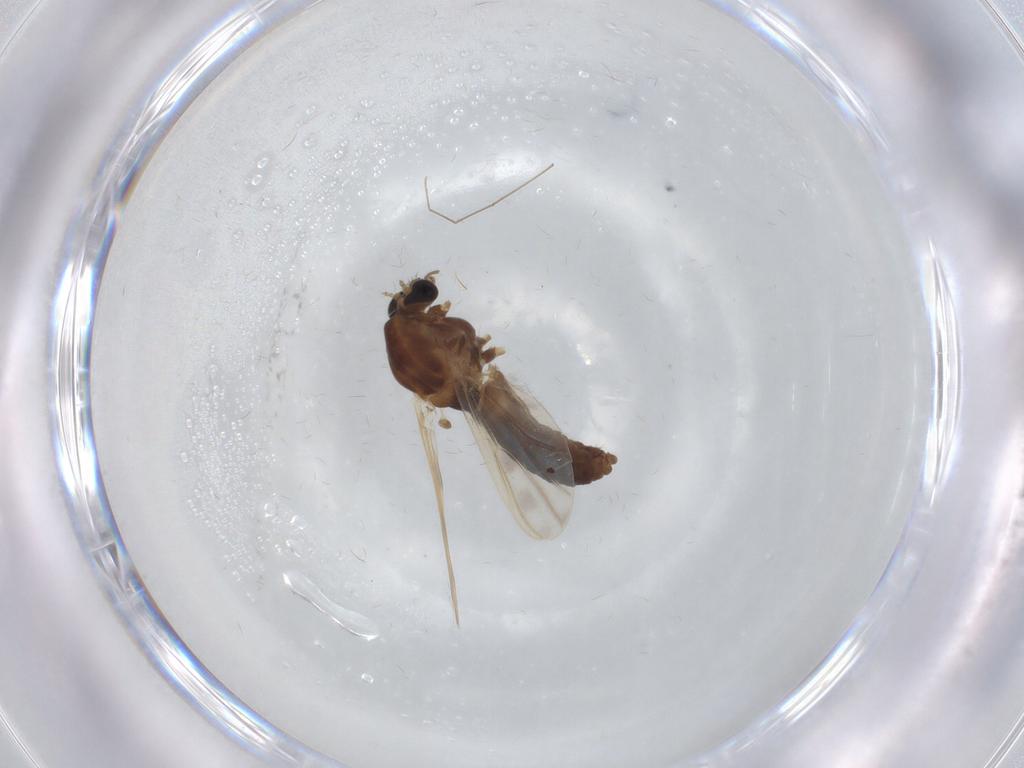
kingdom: Animalia
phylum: Arthropoda
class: Insecta
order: Diptera
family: Chironomidae
